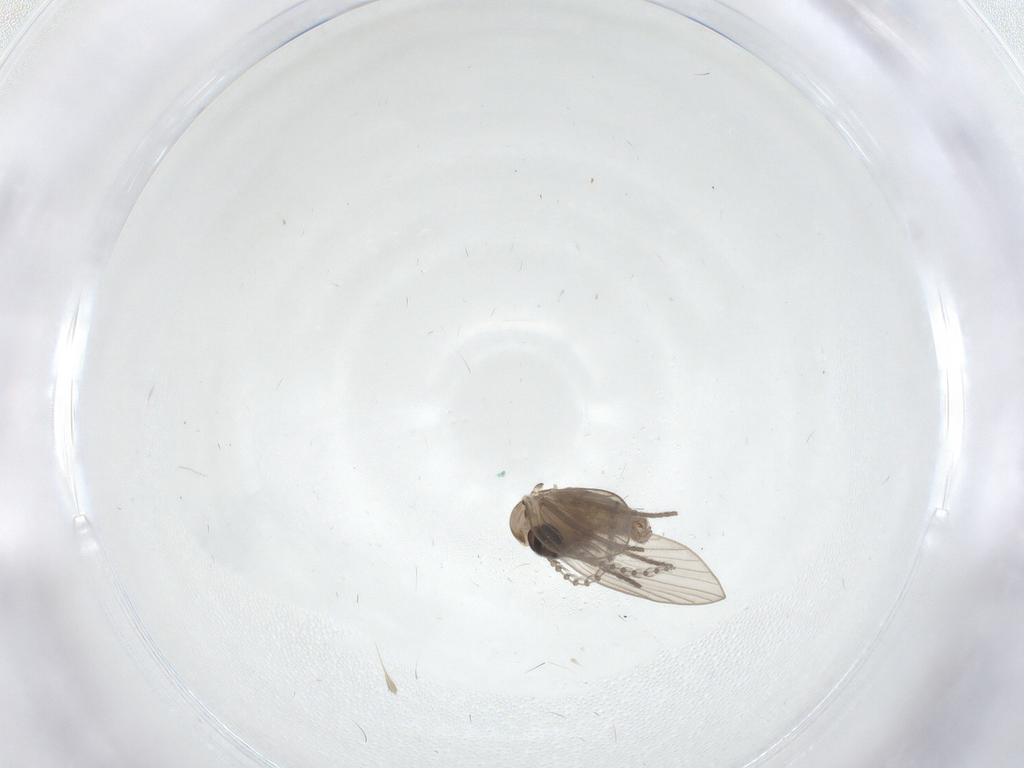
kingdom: Animalia
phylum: Arthropoda
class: Insecta
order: Diptera
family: Psychodidae
